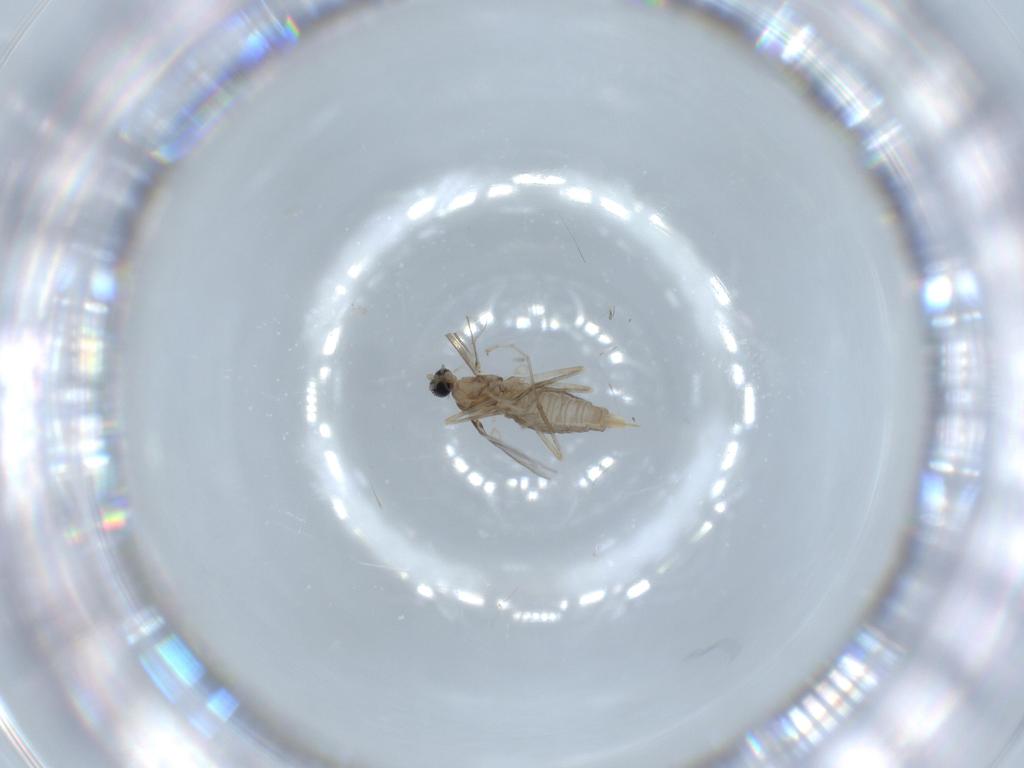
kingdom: Animalia
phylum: Arthropoda
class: Insecta
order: Diptera
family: Cecidomyiidae
